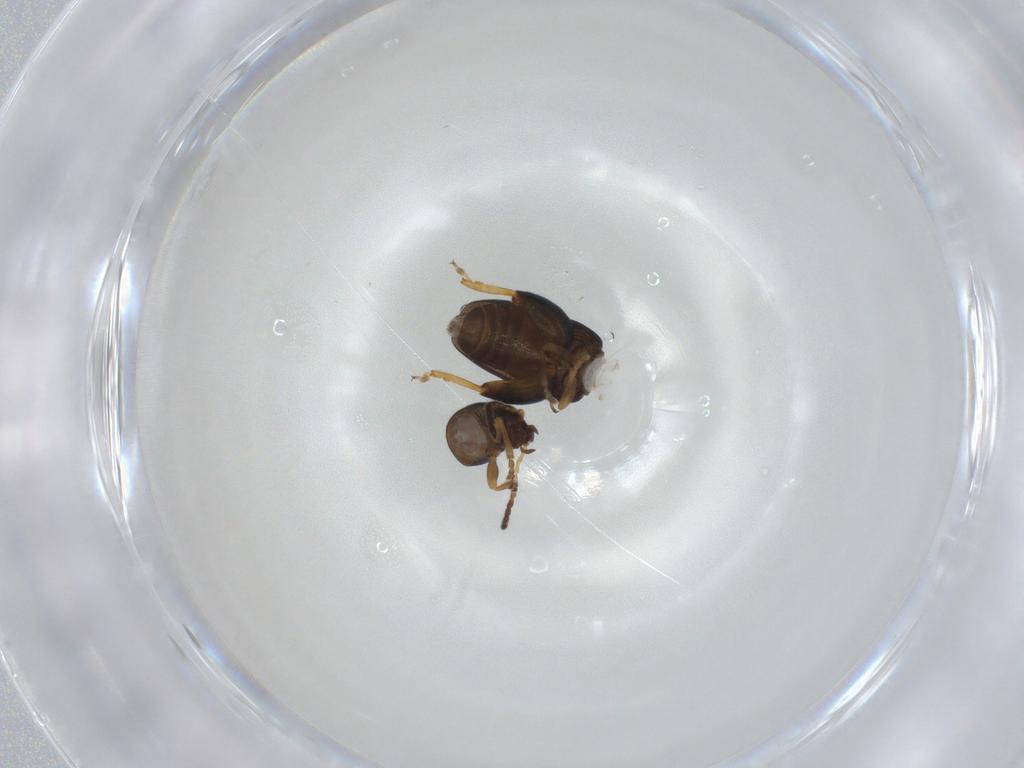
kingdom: Animalia
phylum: Arthropoda
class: Insecta
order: Coleoptera
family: Chrysomelidae
